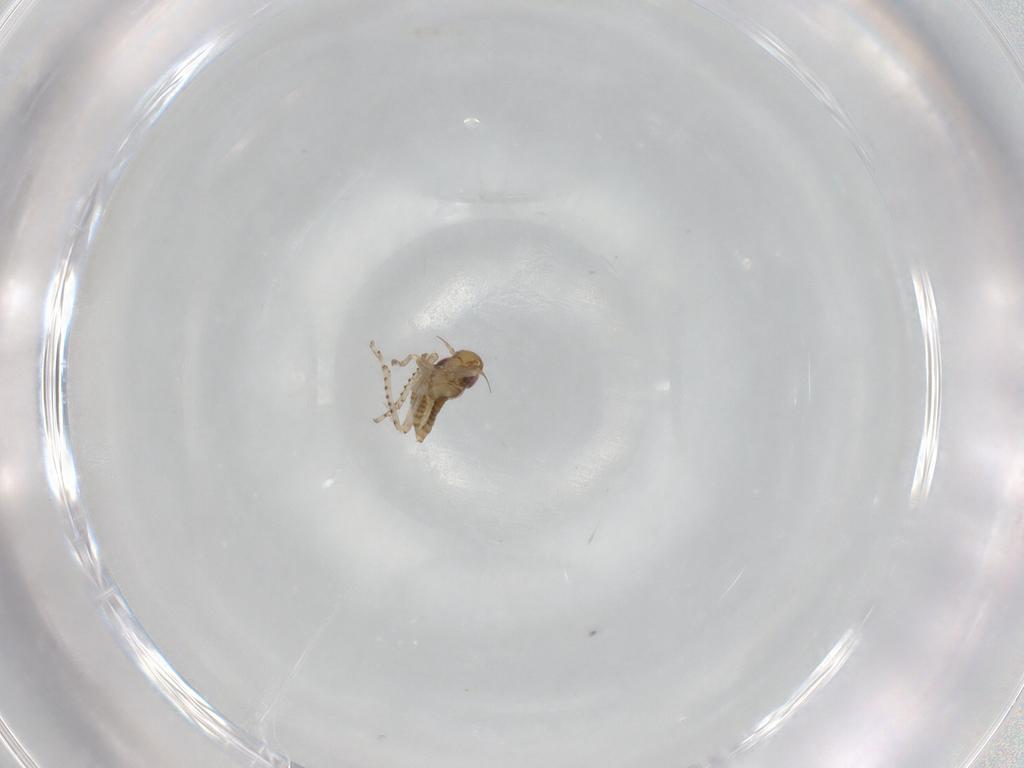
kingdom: Animalia
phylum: Arthropoda
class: Insecta
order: Hemiptera
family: Cicadellidae
